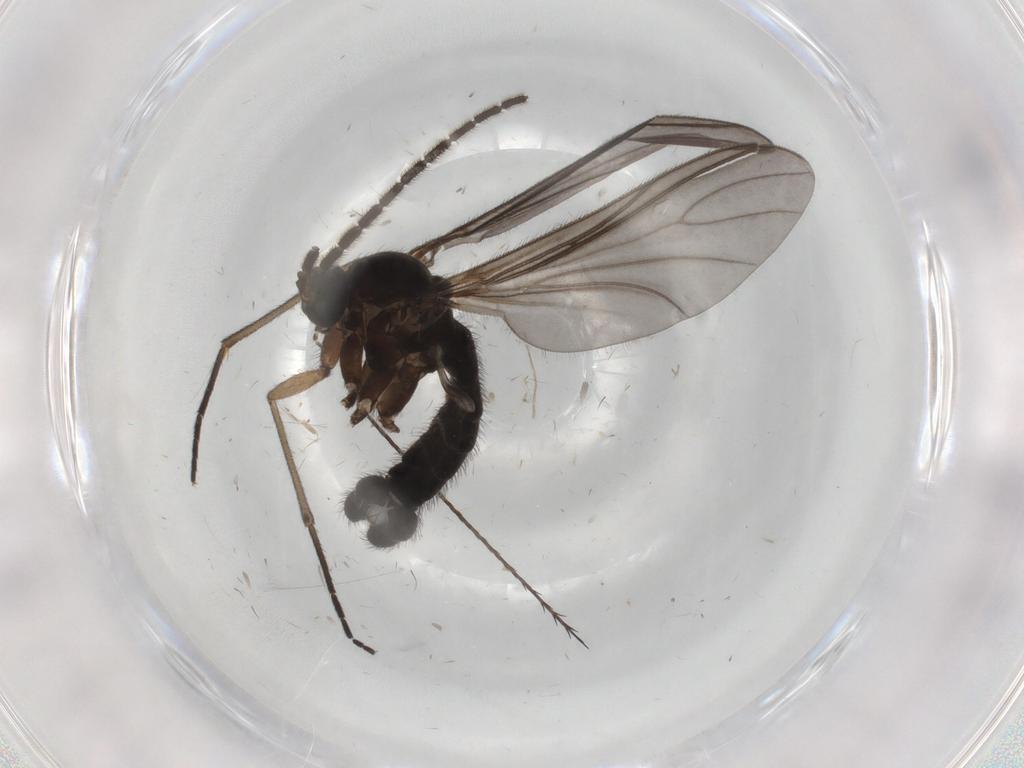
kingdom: Animalia
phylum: Arthropoda
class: Insecta
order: Diptera
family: Sciaridae
